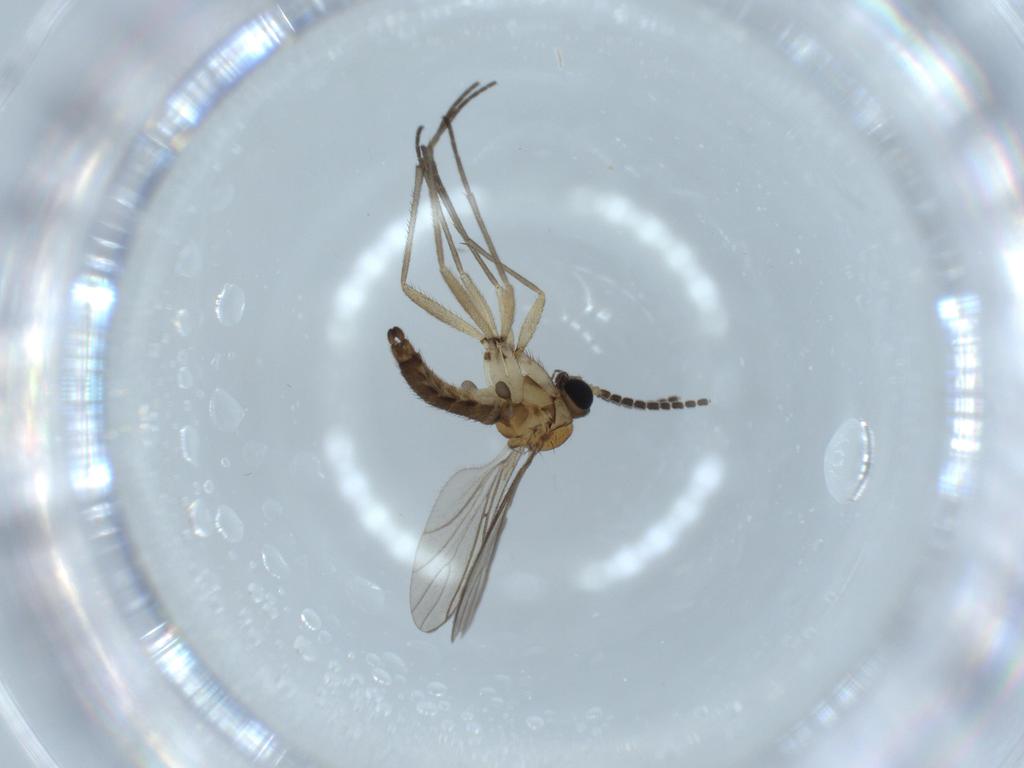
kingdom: Animalia
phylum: Arthropoda
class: Insecta
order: Diptera
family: Sciaridae
